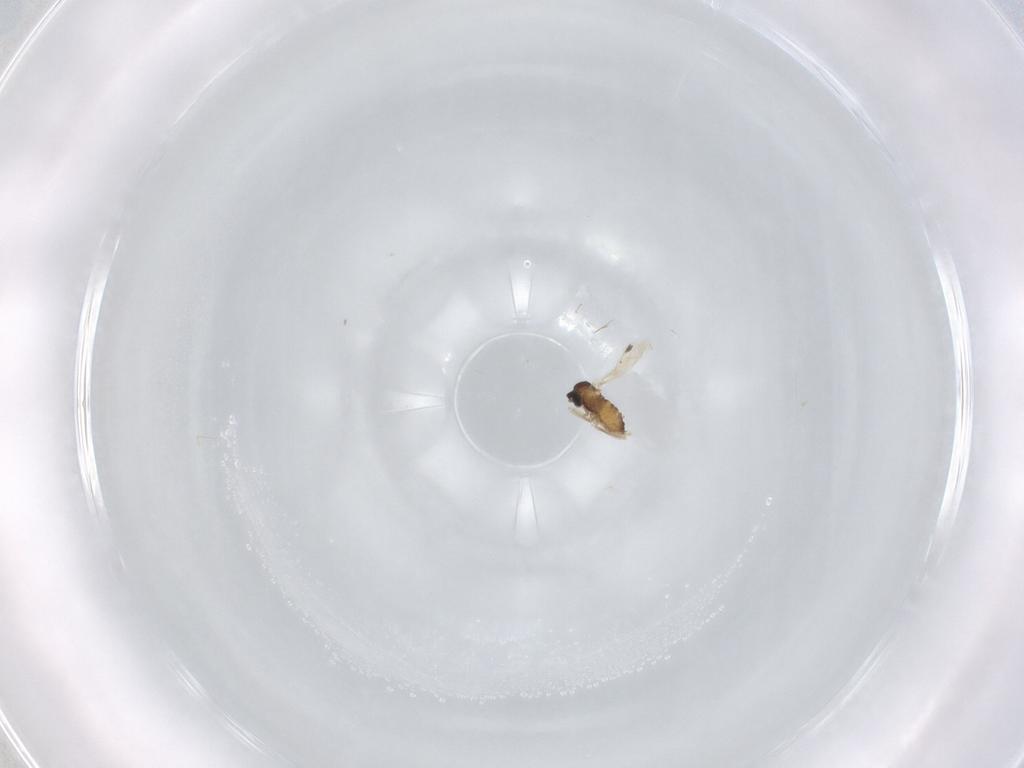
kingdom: Animalia
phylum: Arthropoda
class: Insecta
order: Diptera
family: Cecidomyiidae
